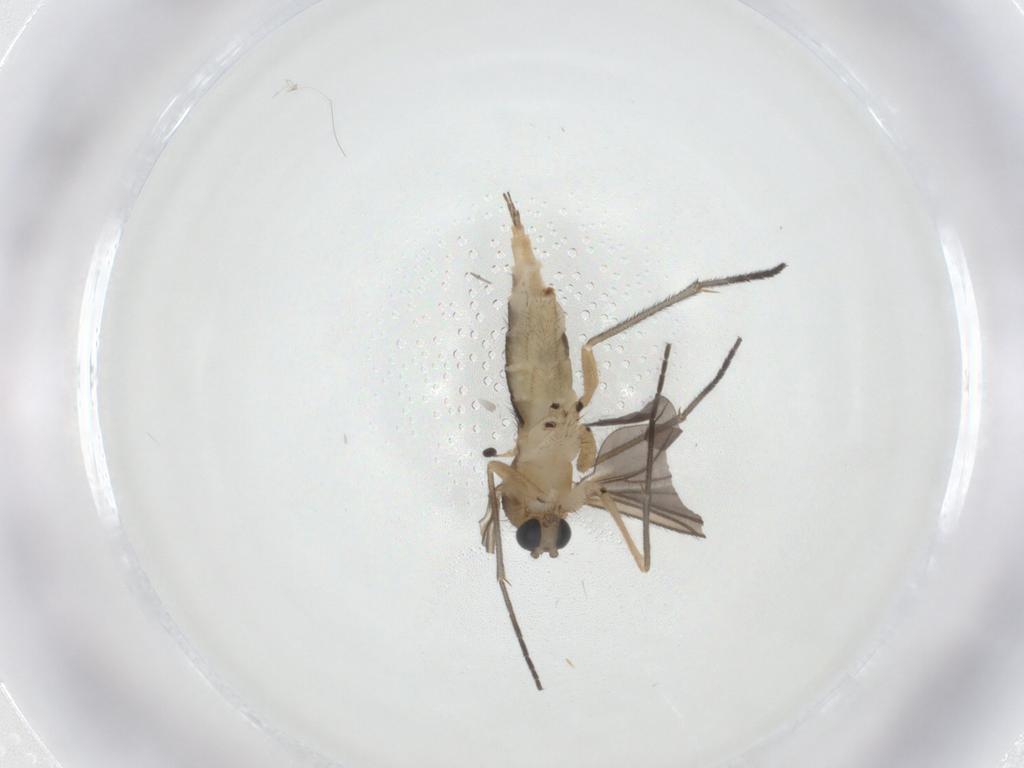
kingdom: Animalia
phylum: Arthropoda
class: Insecta
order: Diptera
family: Sciaridae
